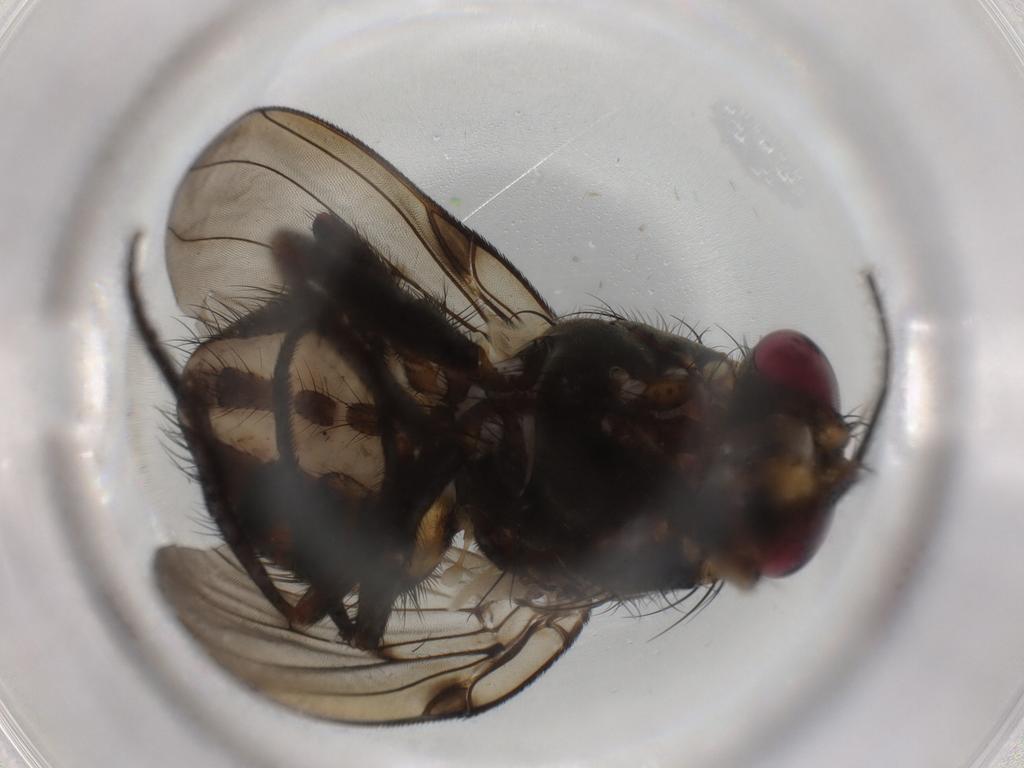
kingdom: Animalia
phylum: Arthropoda
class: Insecta
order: Diptera
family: Muscidae
